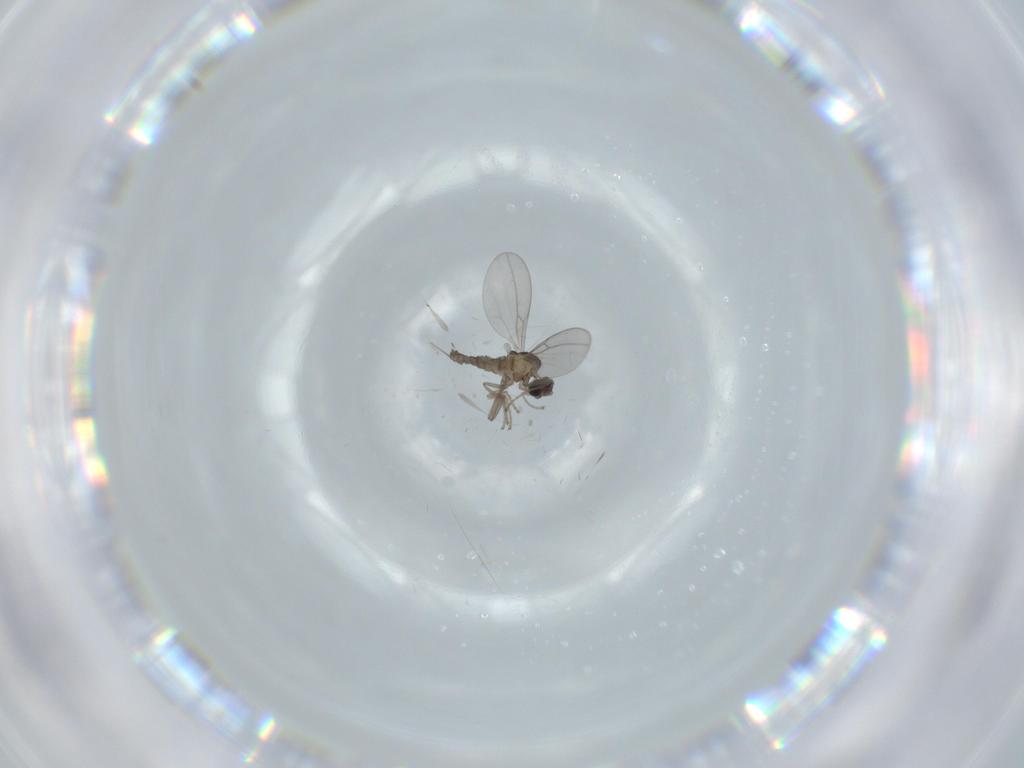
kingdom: Animalia
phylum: Arthropoda
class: Insecta
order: Diptera
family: Cecidomyiidae
